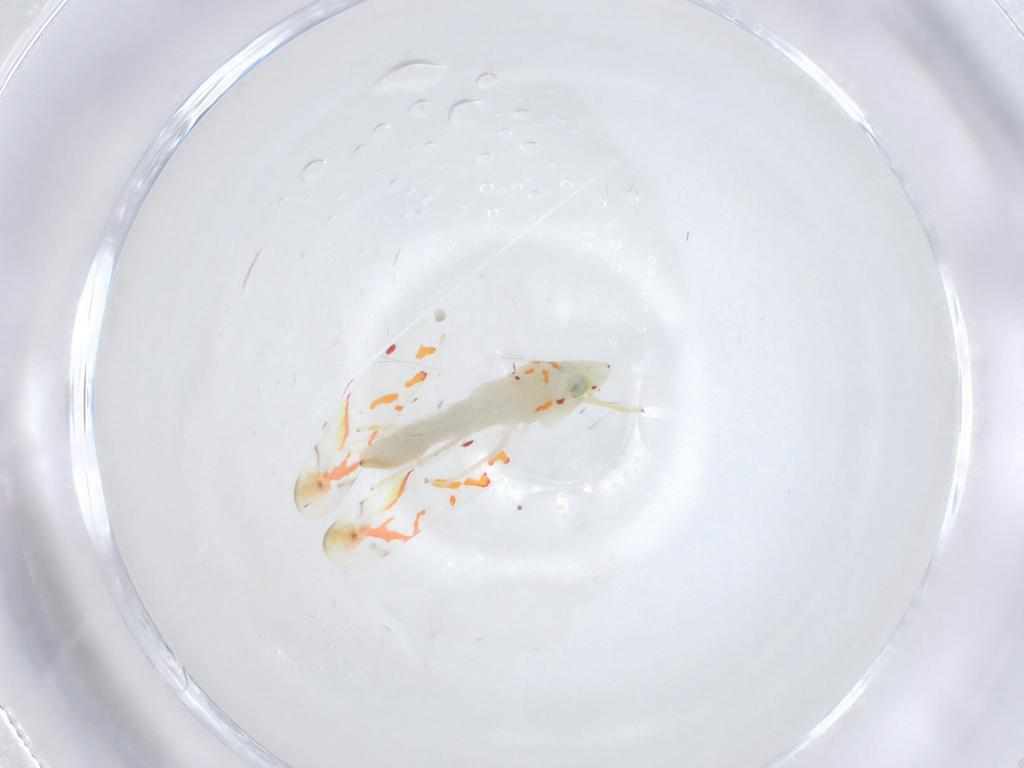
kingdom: Animalia
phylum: Arthropoda
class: Insecta
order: Hemiptera
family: Cicadellidae
